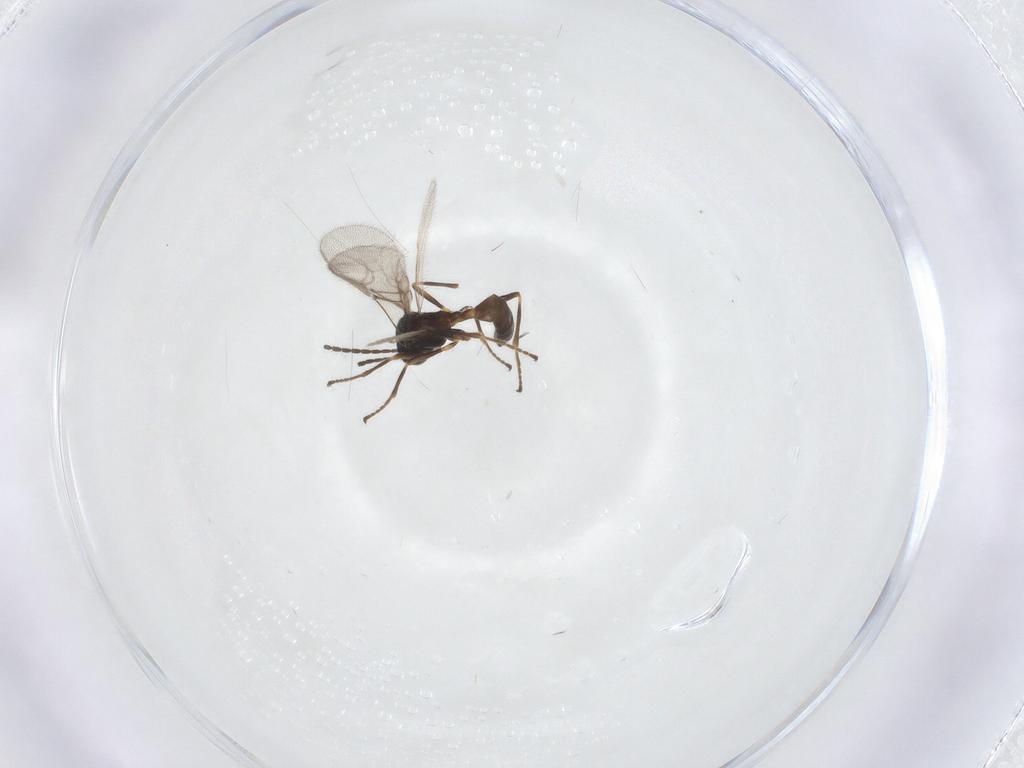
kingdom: Animalia
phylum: Arthropoda
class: Insecta
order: Hymenoptera
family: Braconidae
